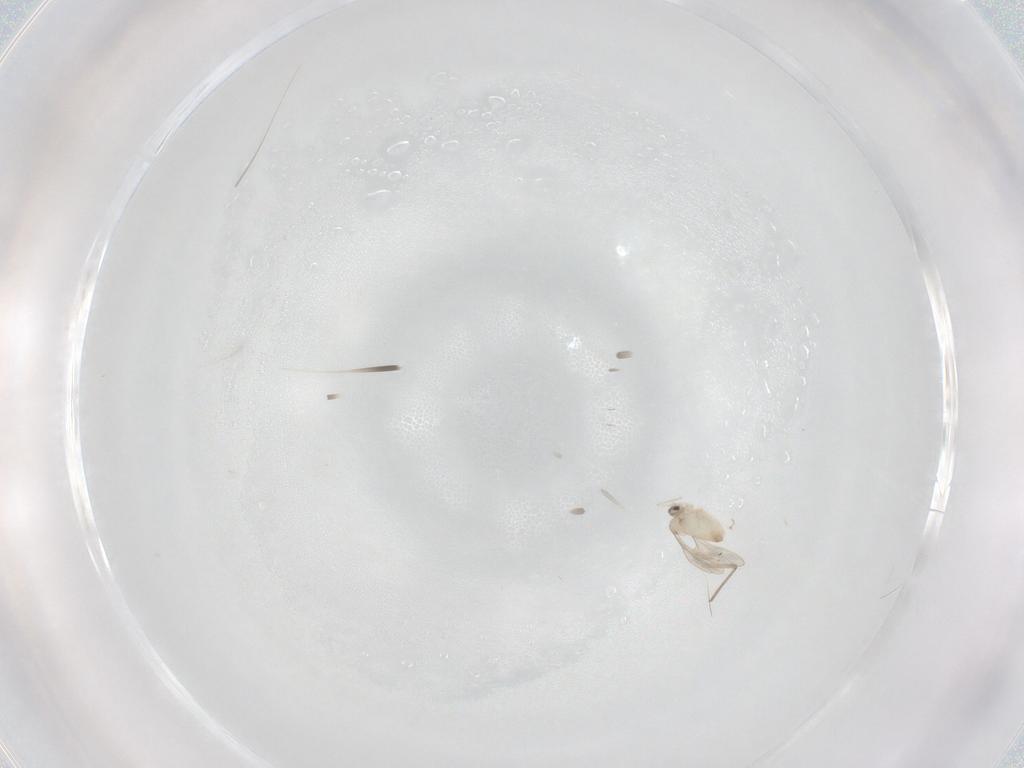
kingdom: Animalia
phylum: Arthropoda
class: Insecta
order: Diptera
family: Cecidomyiidae
